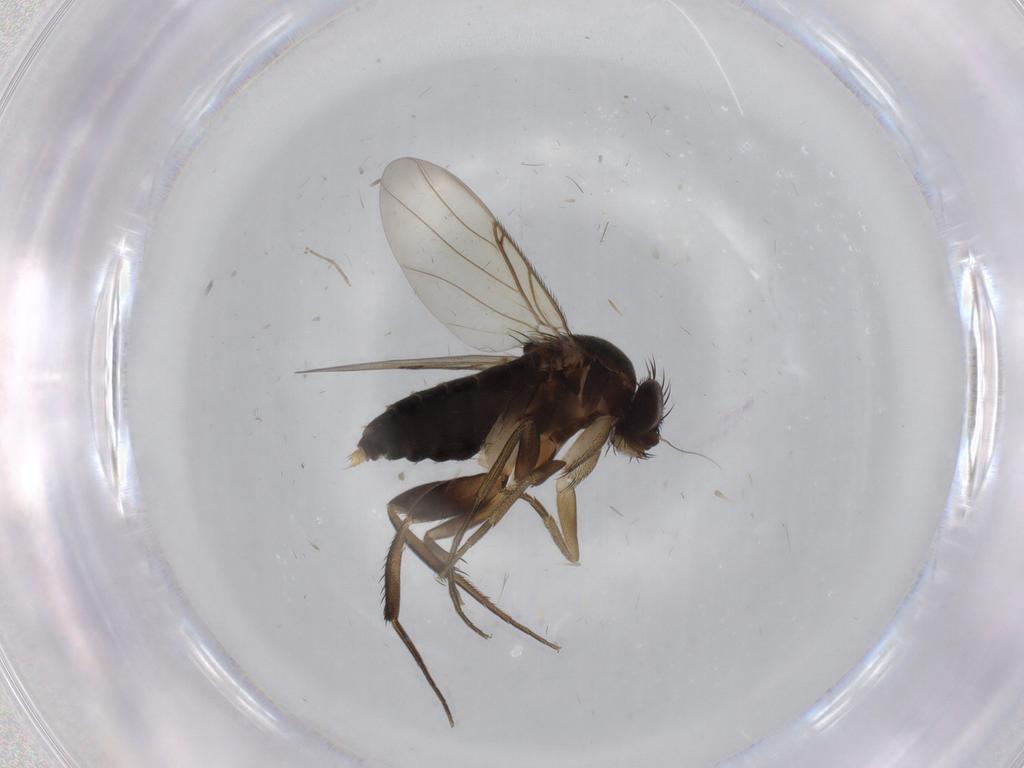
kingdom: Animalia
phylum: Arthropoda
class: Insecta
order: Diptera
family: Phoridae
